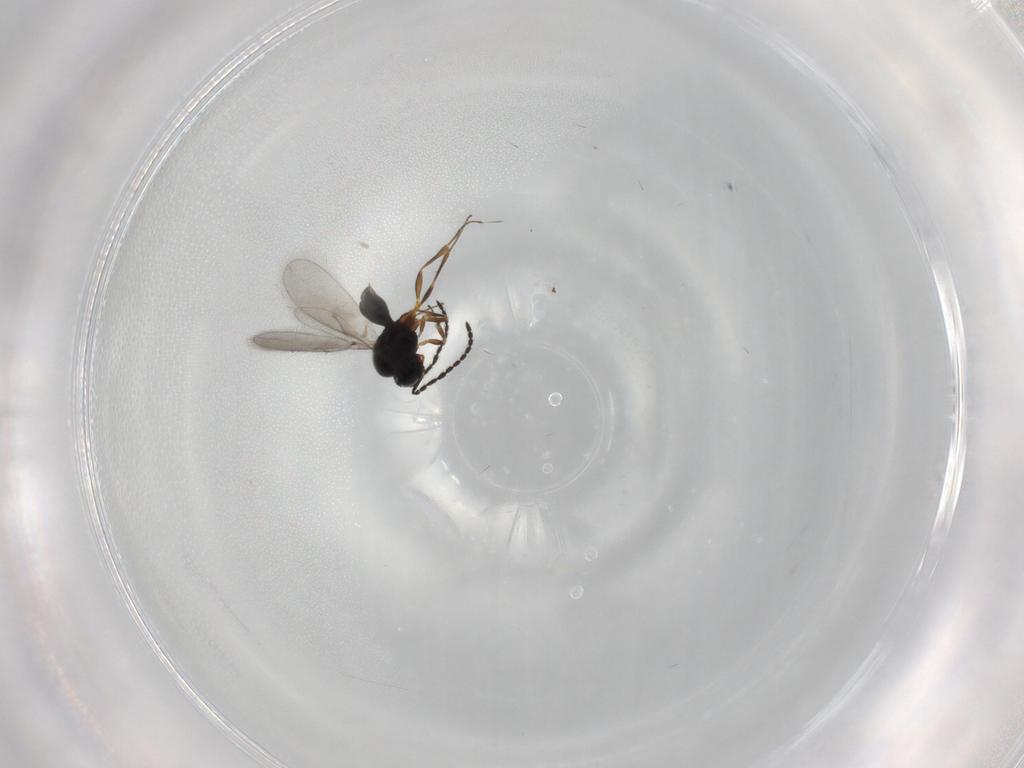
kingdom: Animalia
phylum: Arthropoda
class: Insecta
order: Hymenoptera
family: Scelionidae
